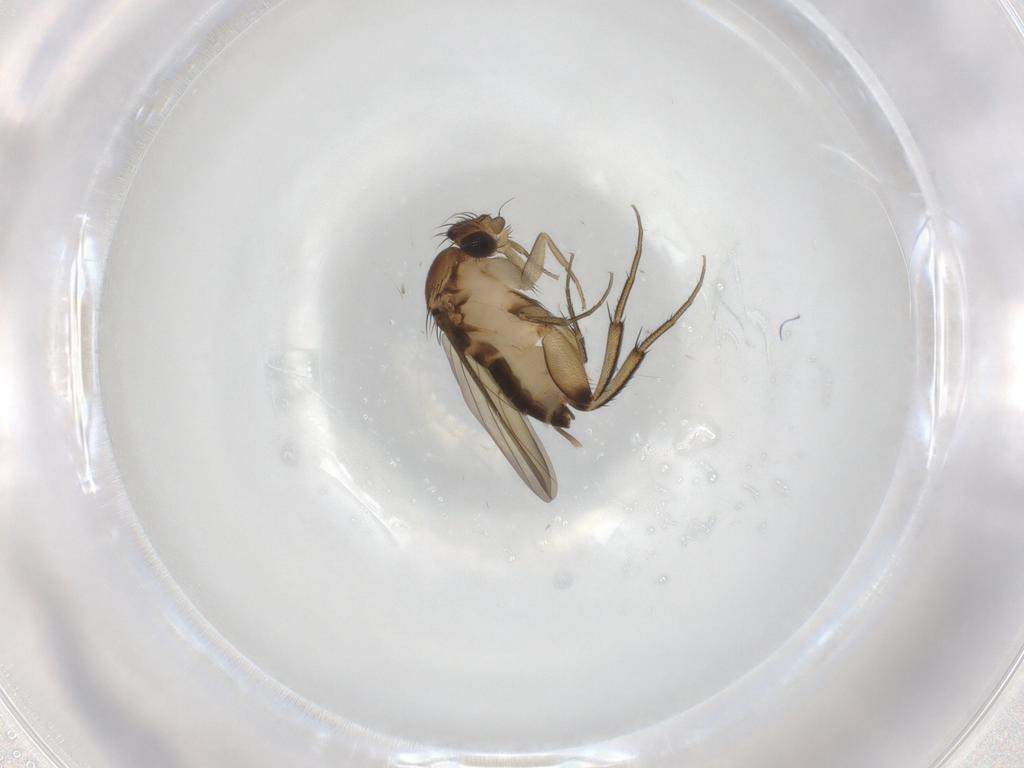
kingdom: Animalia
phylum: Arthropoda
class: Insecta
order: Diptera
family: Phoridae
